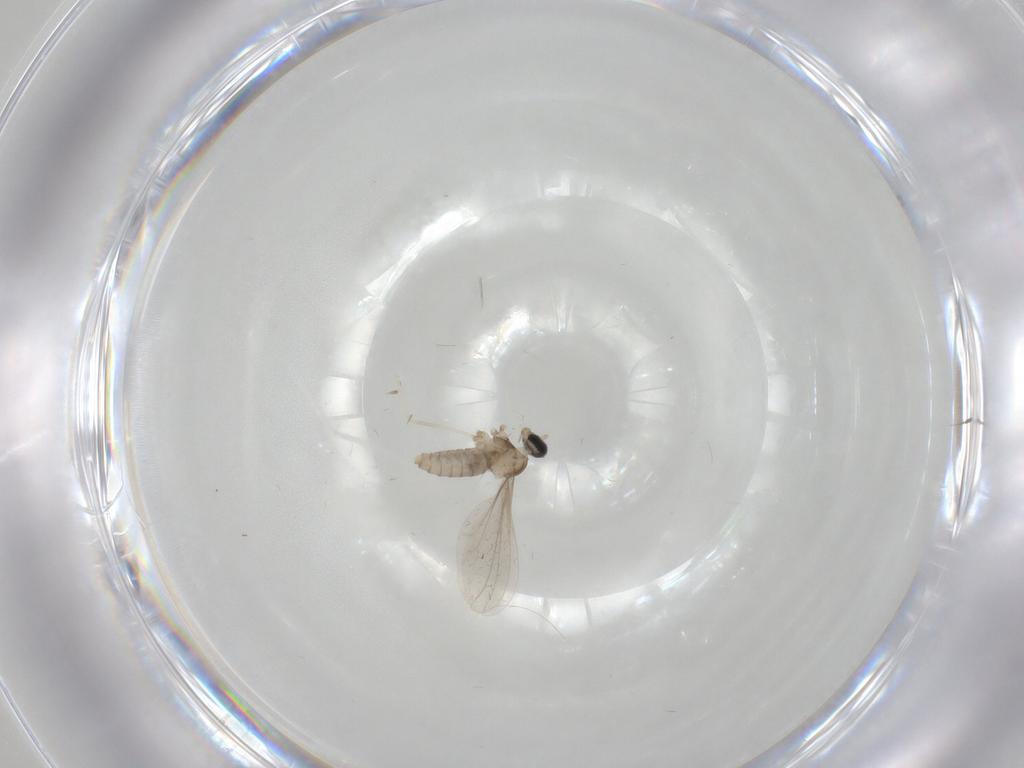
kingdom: Animalia
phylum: Arthropoda
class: Insecta
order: Diptera
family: Cecidomyiidae
